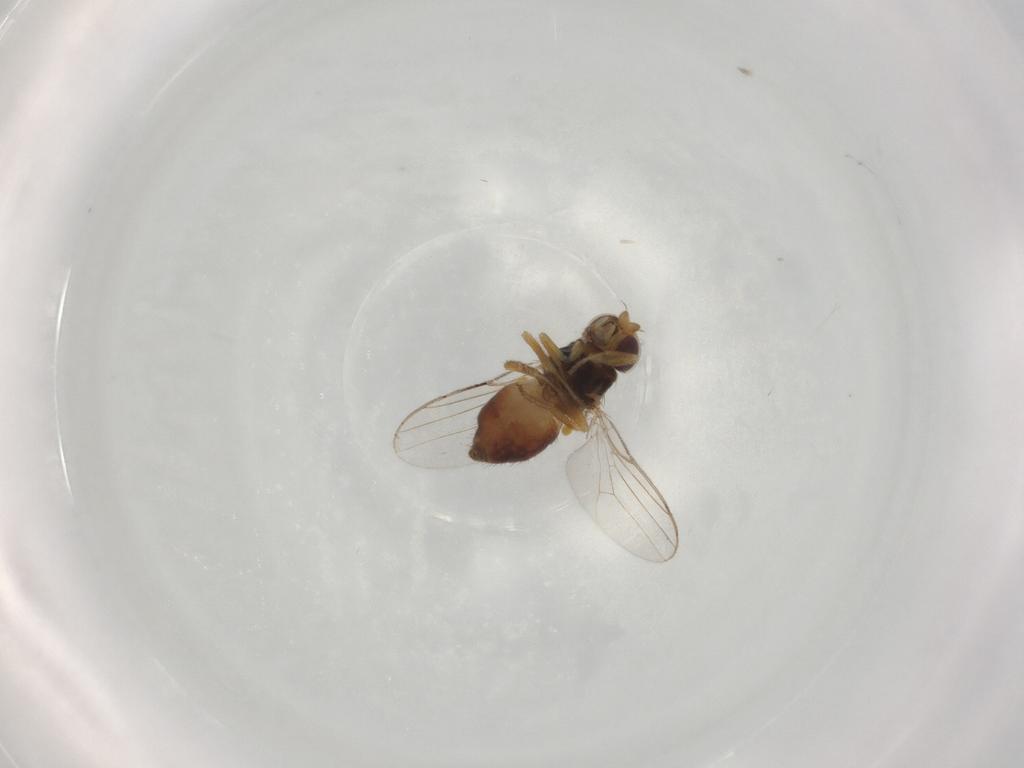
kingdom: Animalia
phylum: Arthropoda
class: Insecta
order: Diptera
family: Chloropidae
